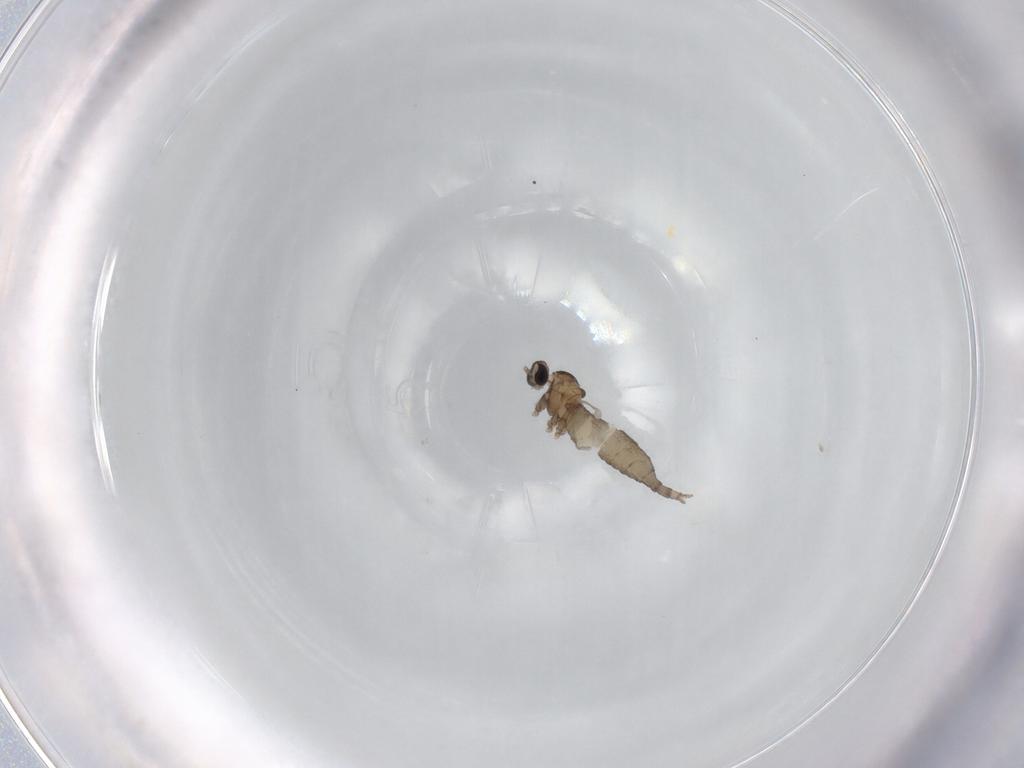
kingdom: Animalia
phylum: Arthropoda
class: Insecta
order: Diptera
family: Cecidomyiidae
